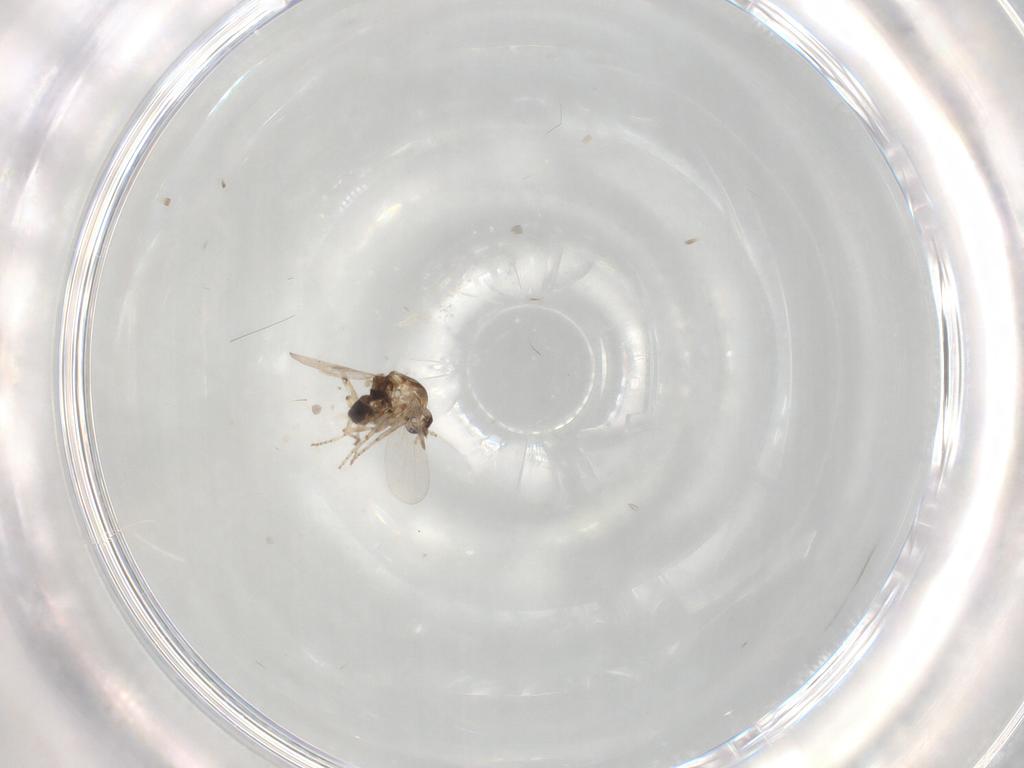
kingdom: Animalia
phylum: Arthropoda
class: Insecta
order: Diptera
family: Ceratopogonidae
